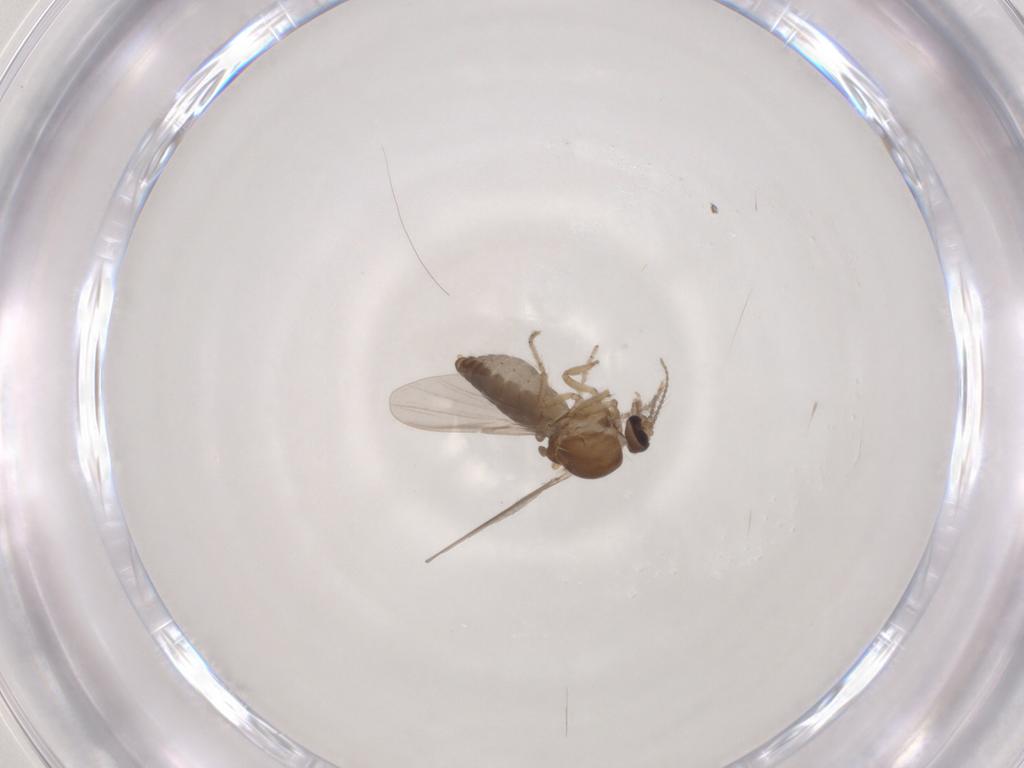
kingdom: Animalia
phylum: Arthropoda
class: Insecta
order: Diptera
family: Ceratopogonidae
